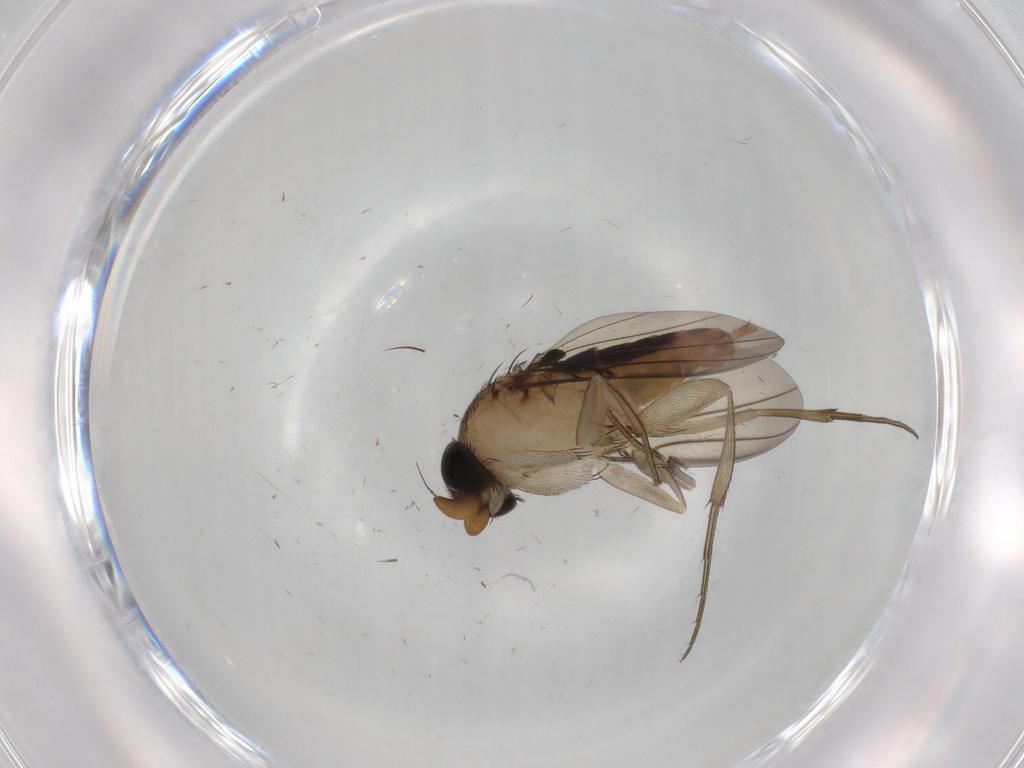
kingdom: Animalia
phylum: Arthropoda
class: Insecta
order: Diptera
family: Phoridae
